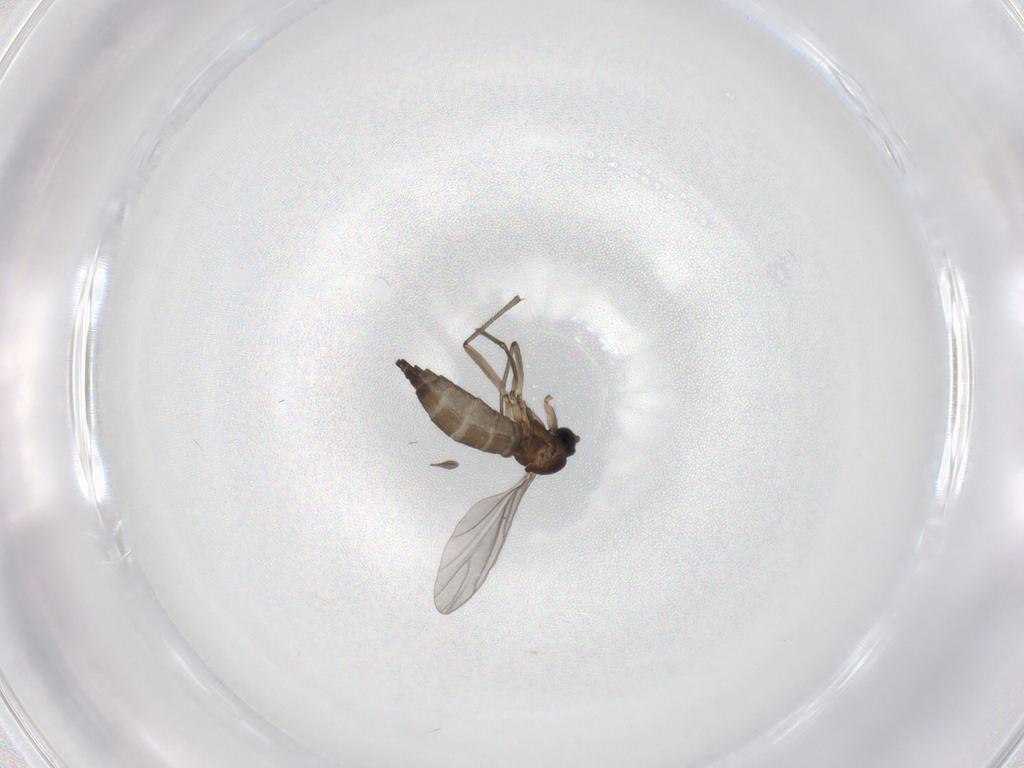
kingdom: Animalia
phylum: Arthropoda
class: Insecta
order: Diptera
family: Sciaridae
